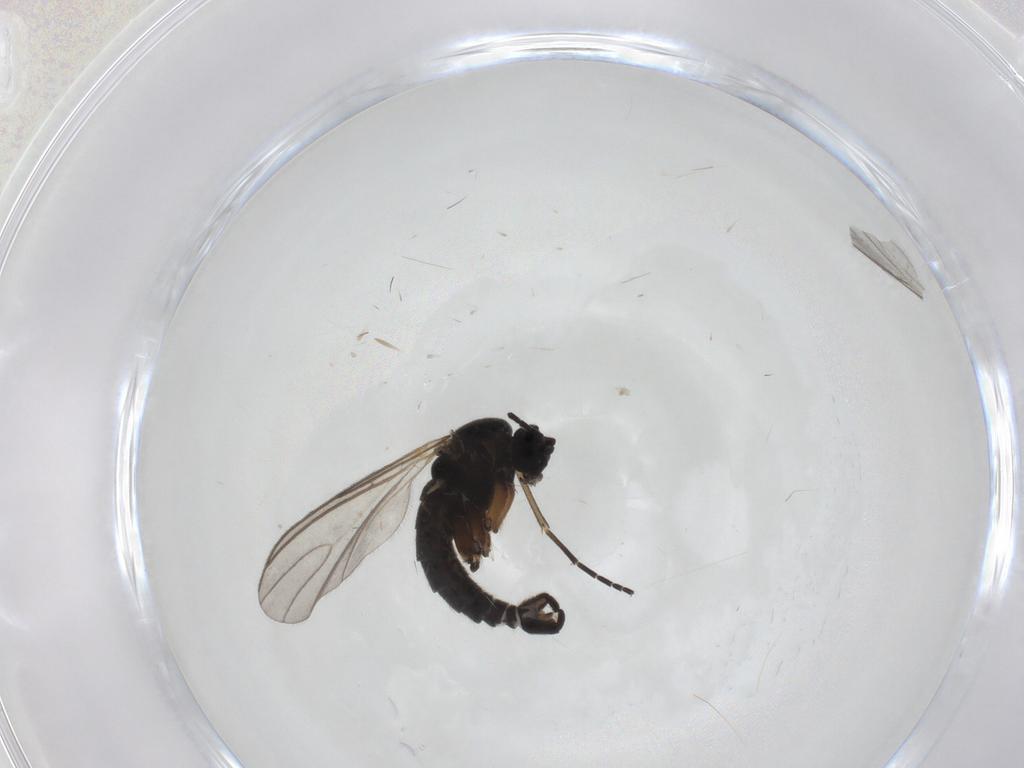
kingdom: Animalia
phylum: Arthropoda
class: Insecta
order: Diptera
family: Sciaridae
